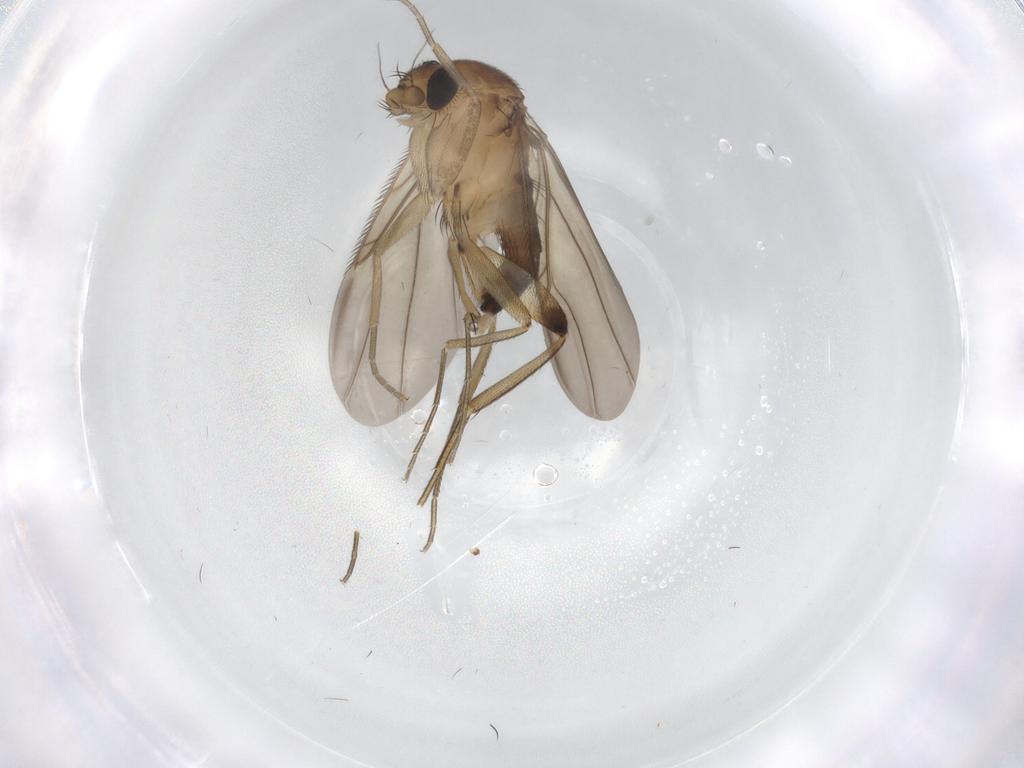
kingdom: Animalia
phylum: Arthropoda
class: Insecta
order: Diptera
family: Phoridae
